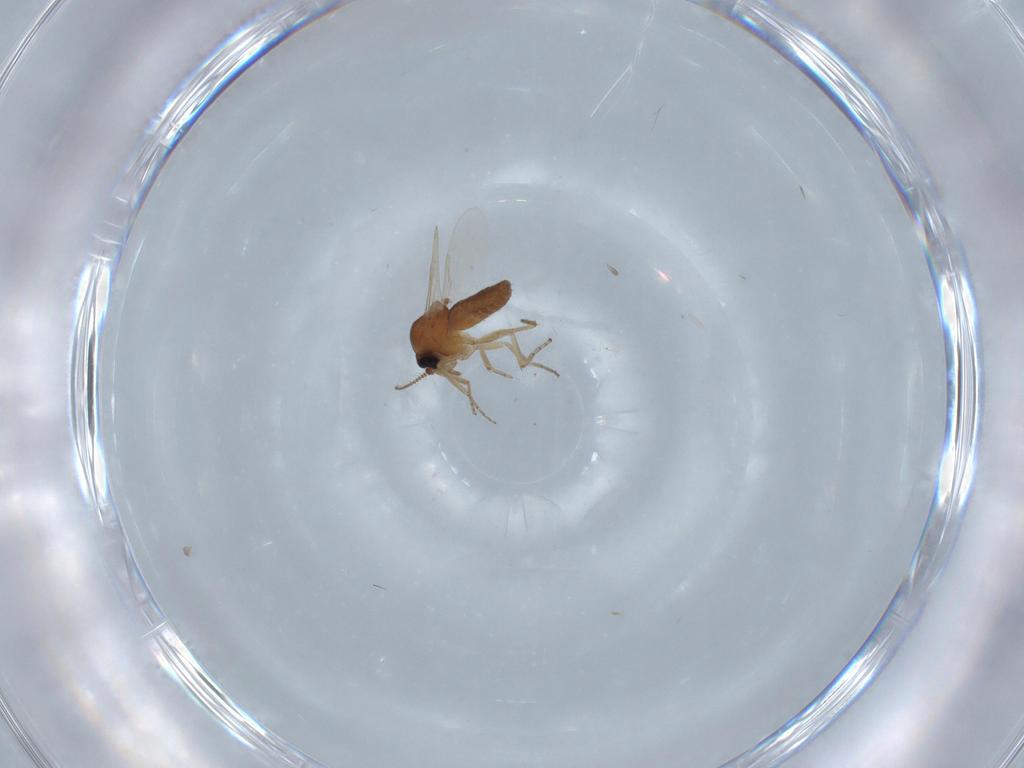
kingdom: Animalia
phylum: Arthropoda
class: Insecta
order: Diptera
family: Ceratopogonidae
